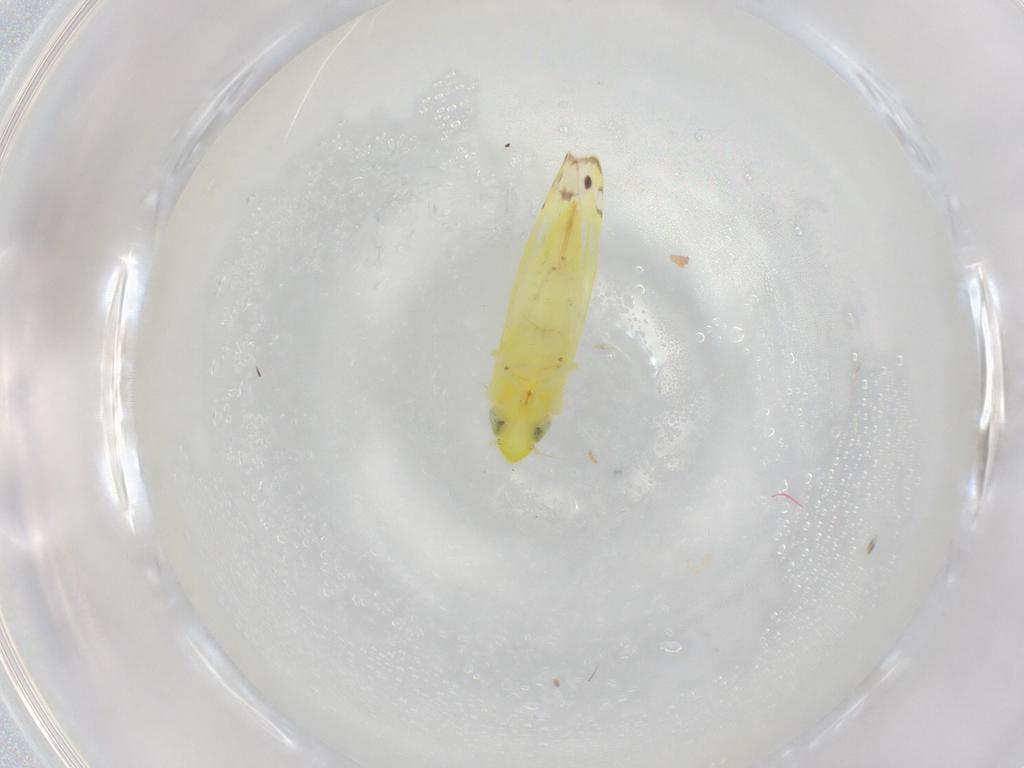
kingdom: Animalia
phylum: Arthropoda
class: Insecta
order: Hemiptera
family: Cicadellidae
